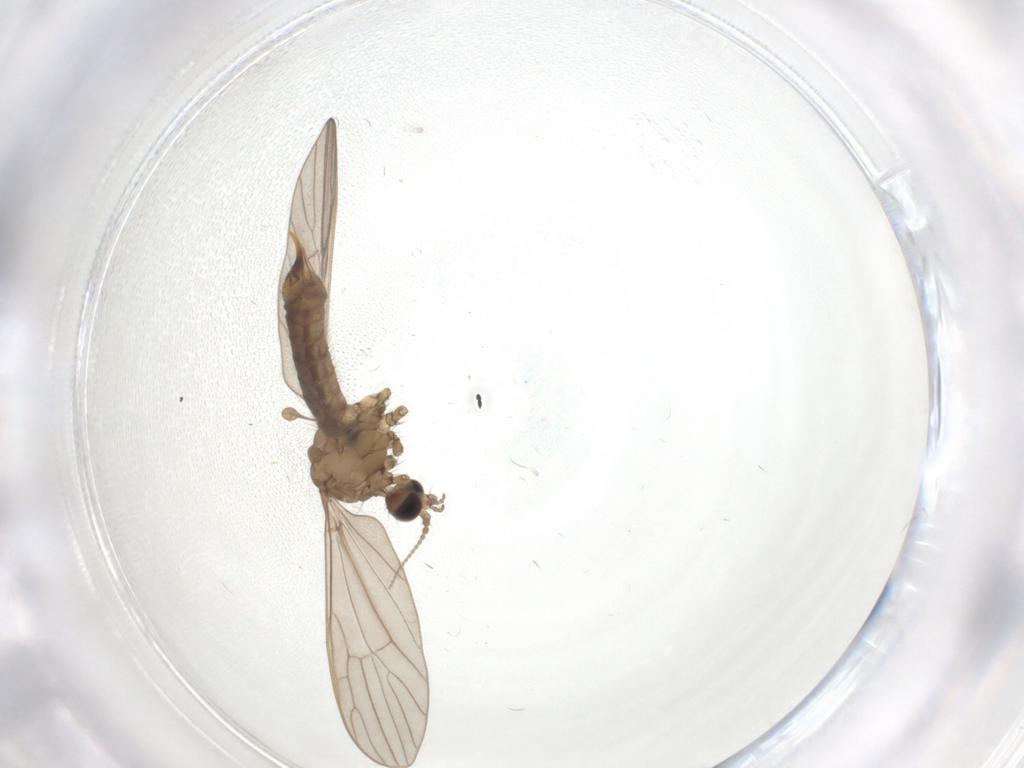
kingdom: Animalia
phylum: Arthropoda
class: Insecta
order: Diptera
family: Limoniidae
